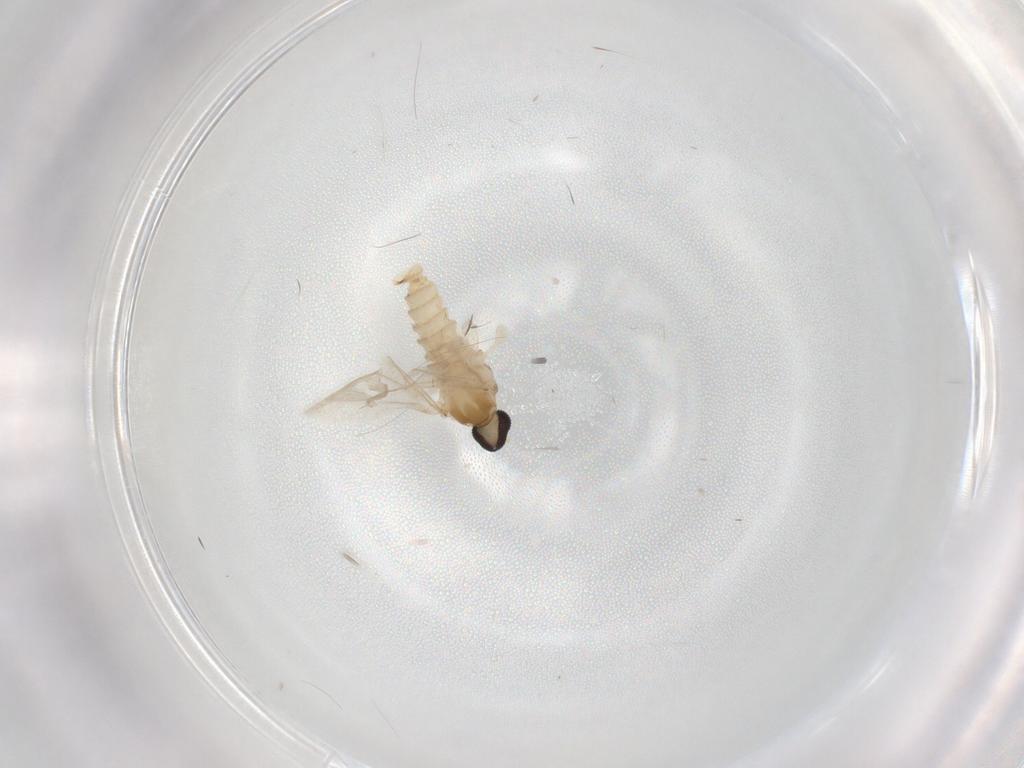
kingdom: Animalia
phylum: Arthropoda
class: Insecta
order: Diptera
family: Cecidomyiidae
